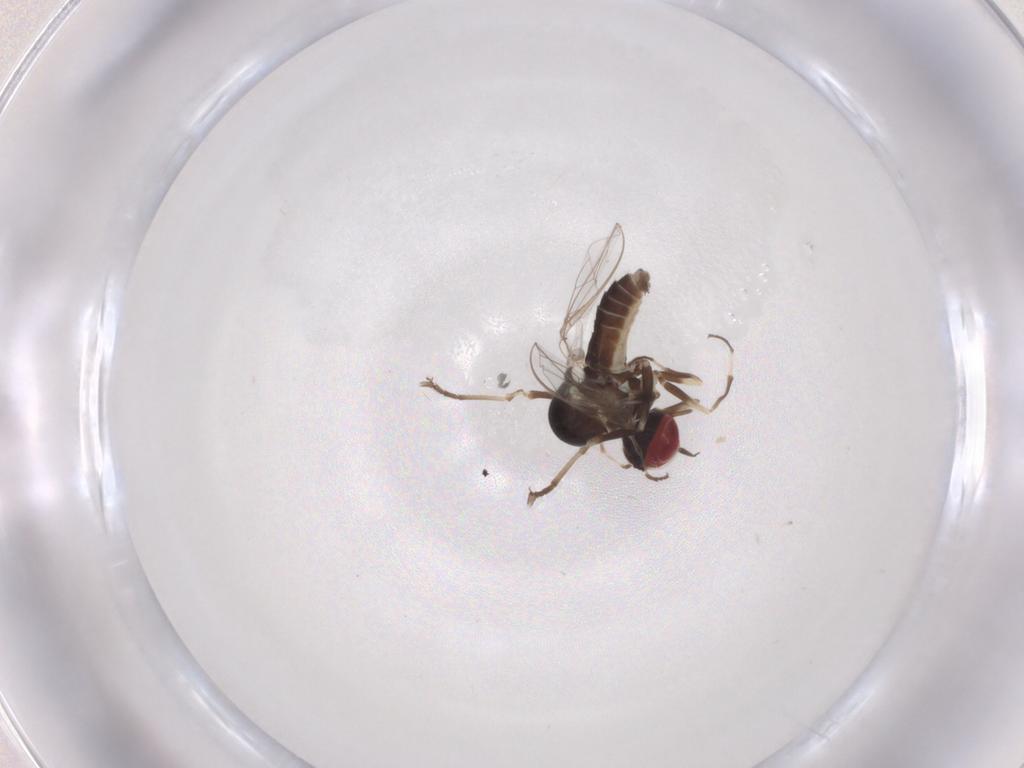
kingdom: Animalia
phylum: Arthropoda
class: Insecta
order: Diptera
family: Bombyliidae
